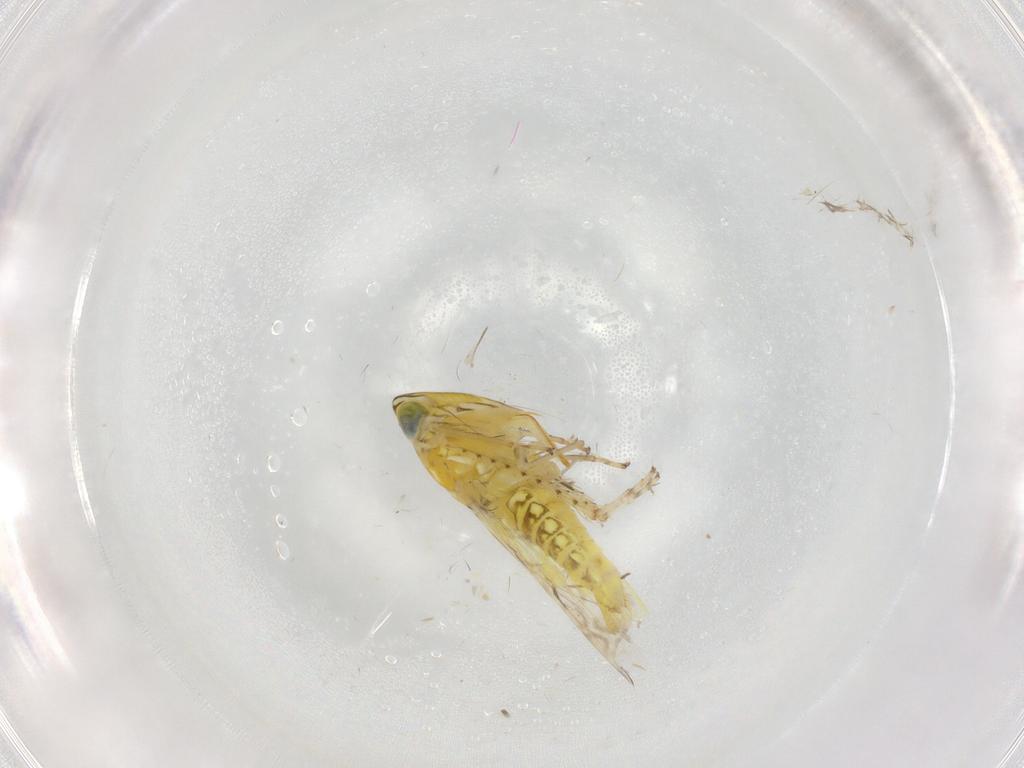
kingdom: Animalia
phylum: Arthropoda
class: Insecta
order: Hemiptera
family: Cicadellidae
